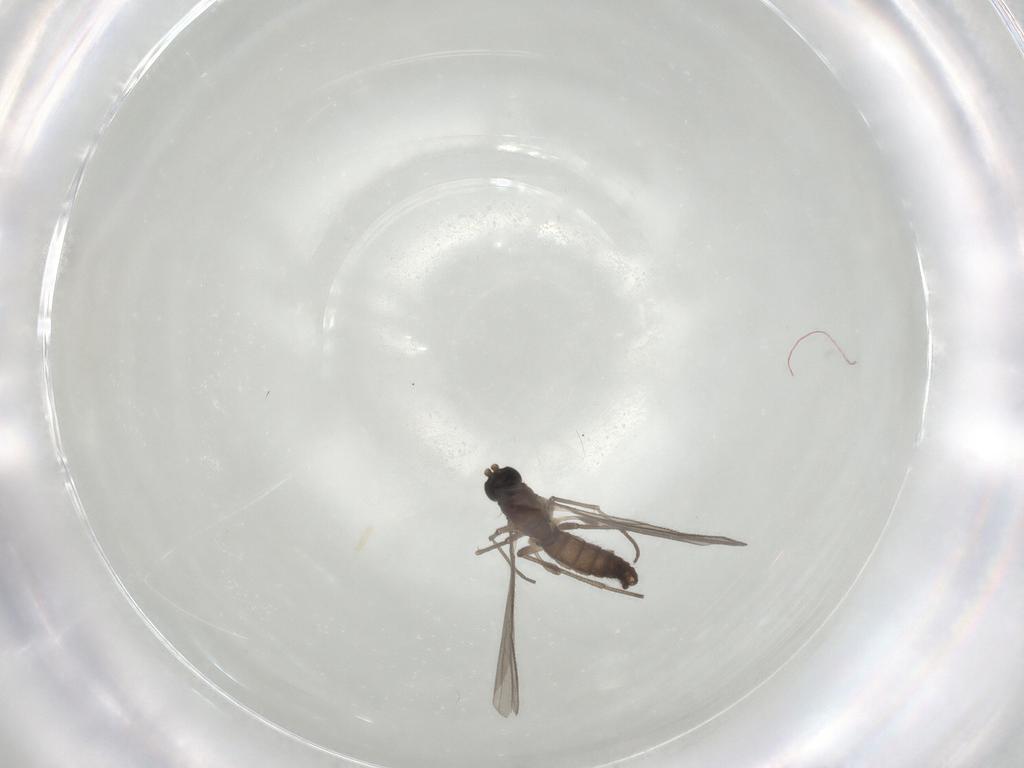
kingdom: Animalia
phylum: Arthropoda
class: Insecta
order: Diptera
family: Sciaridae
